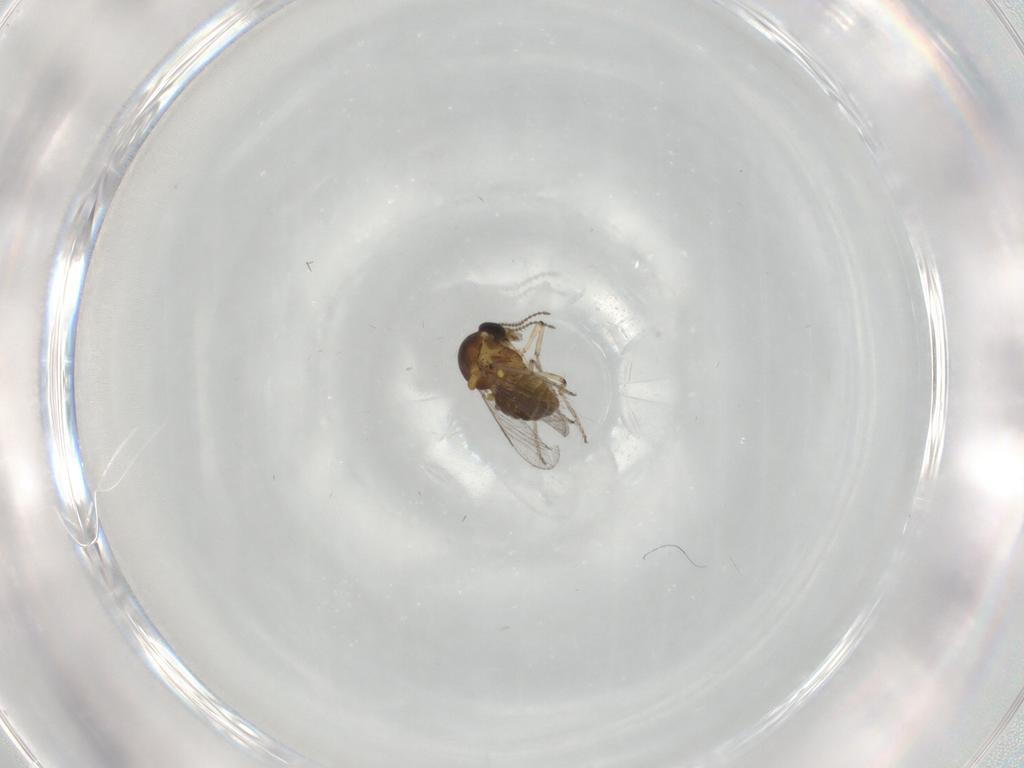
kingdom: Animalia
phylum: Arthropoda
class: Insecta
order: Diptera
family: Ceratopogonidae
